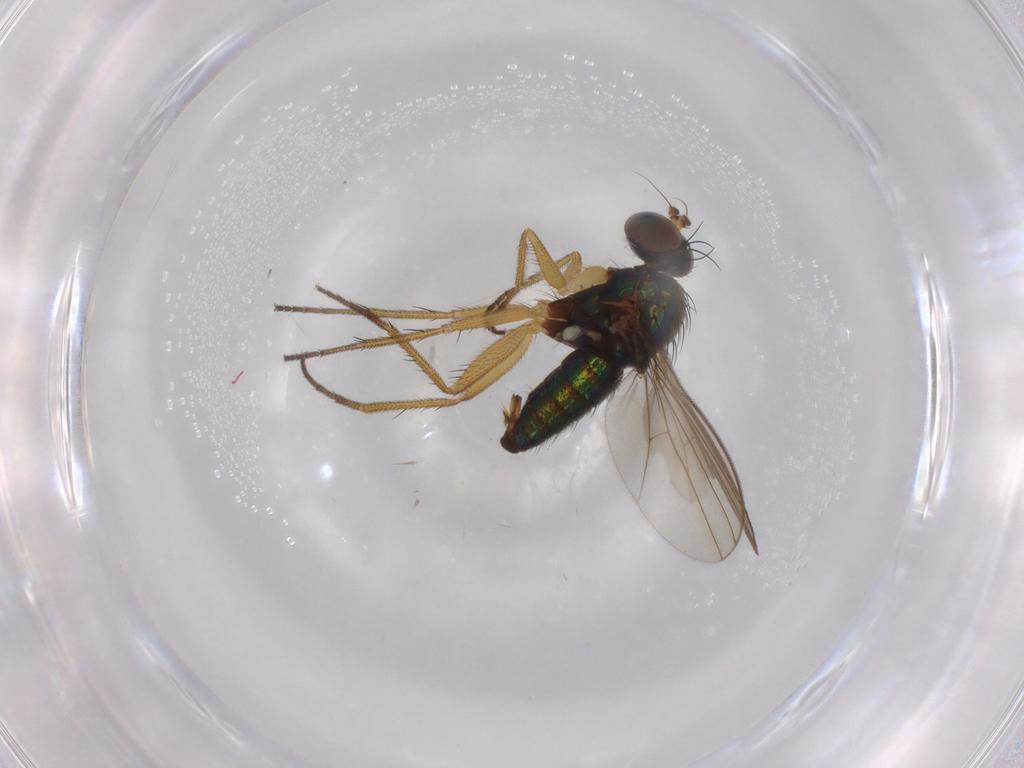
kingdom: Animalia
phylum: Arthropoda
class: Insecta
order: Diptera
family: Dolichopodidae
